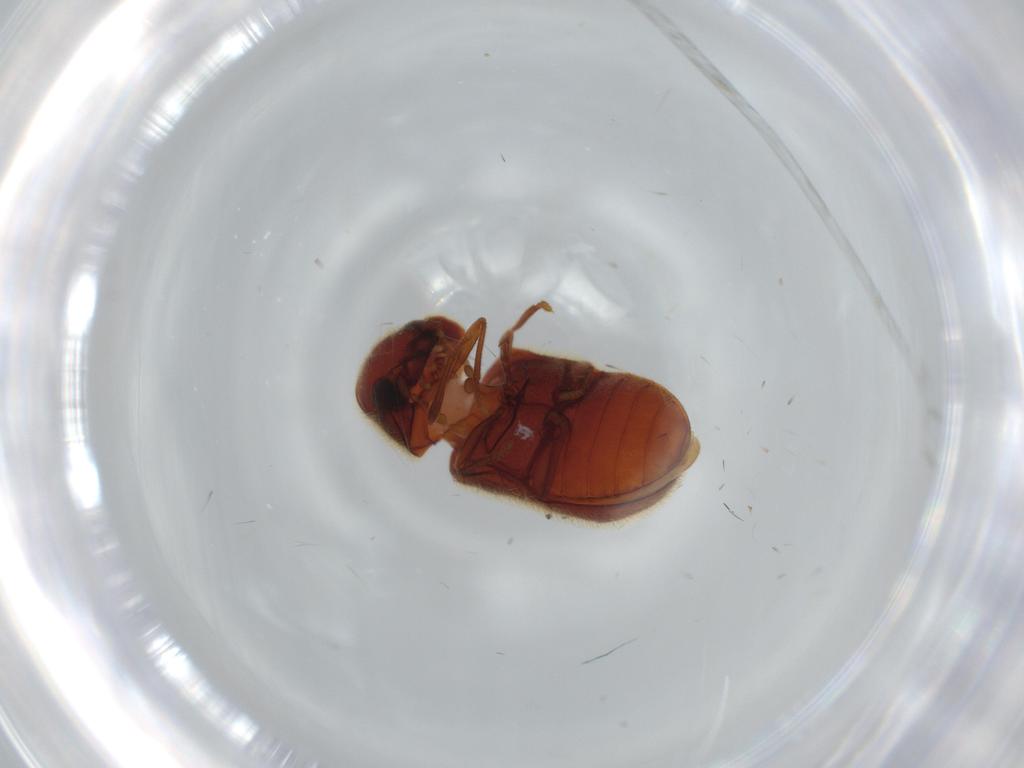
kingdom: Animalia
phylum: Arthropoda
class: Insecta
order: Coleoptera
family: Ptinidae
